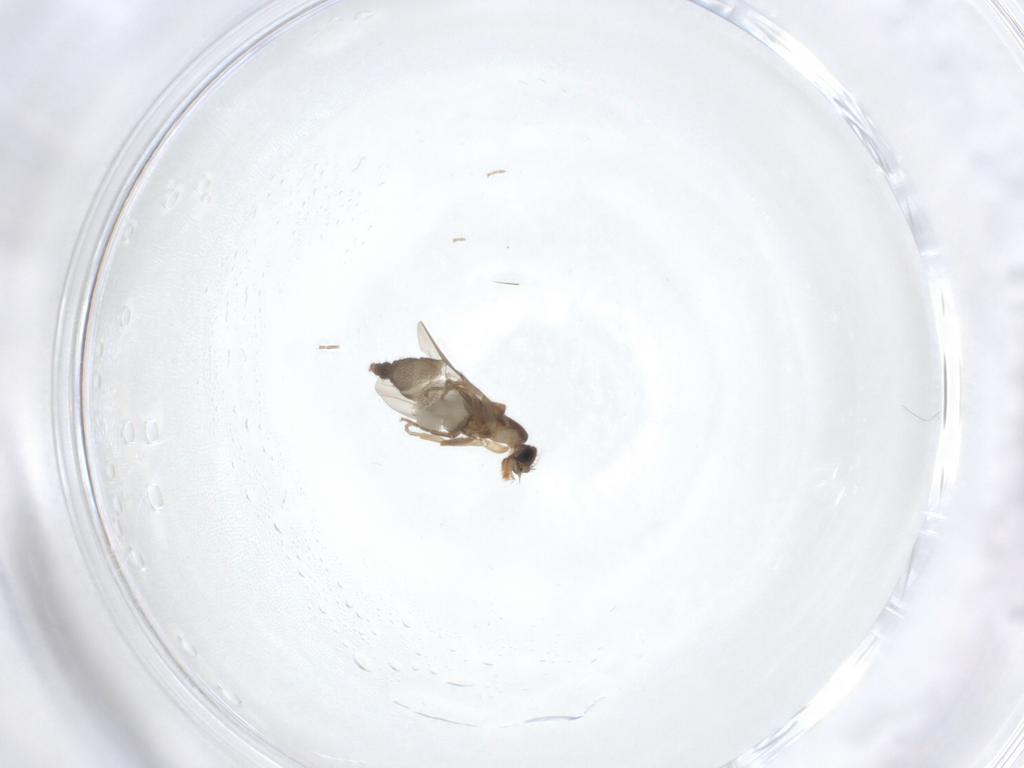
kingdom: Animalia
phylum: Arthropoda
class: Insecta
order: Diptera
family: Phoridae
